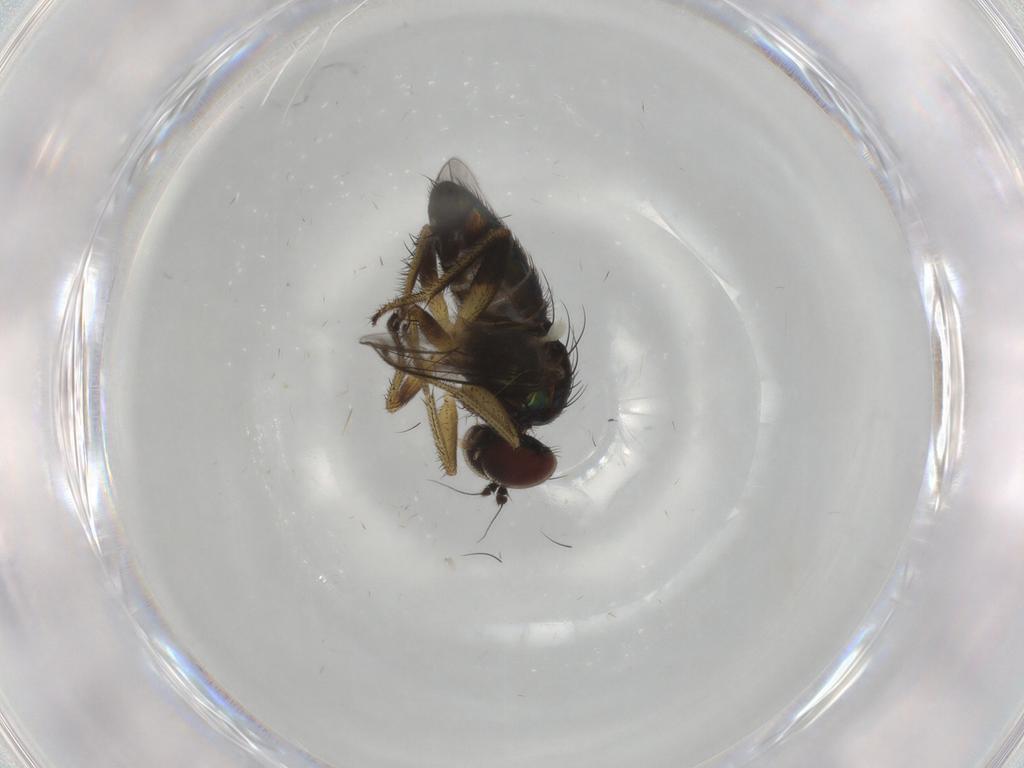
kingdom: Animalia
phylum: Arthropoda
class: Insecta
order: Diptera
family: Dolichopodidae
